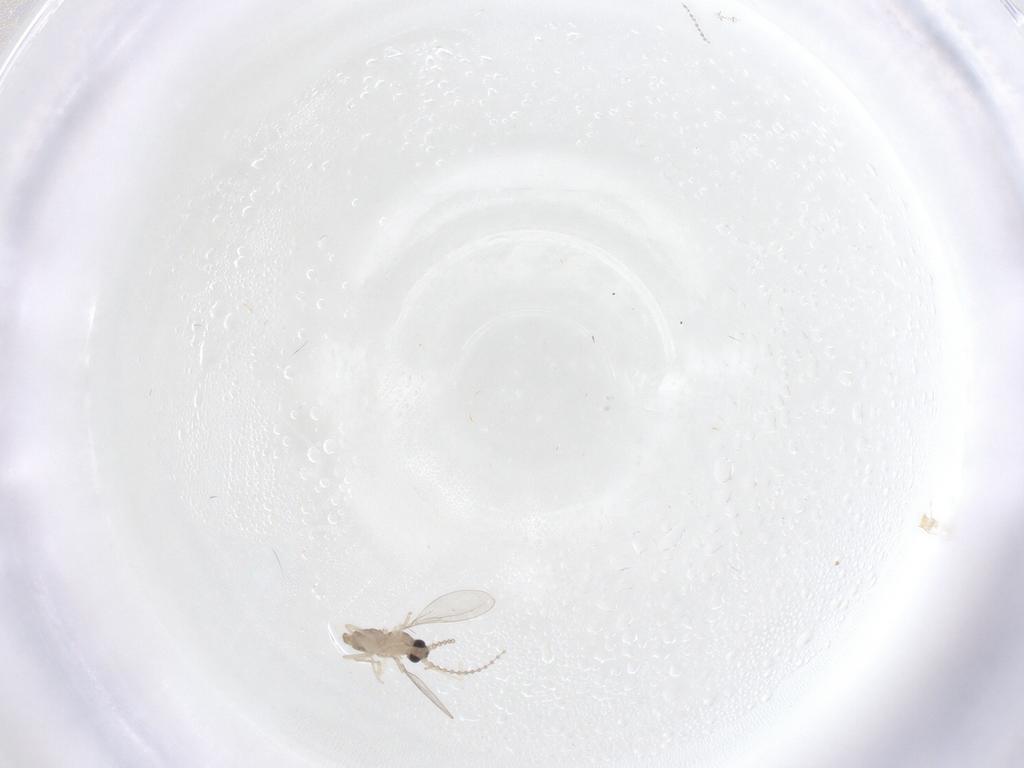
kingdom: Animalia
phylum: Arthropoda
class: Insecta
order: Diptera
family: Cecidomyiidae
